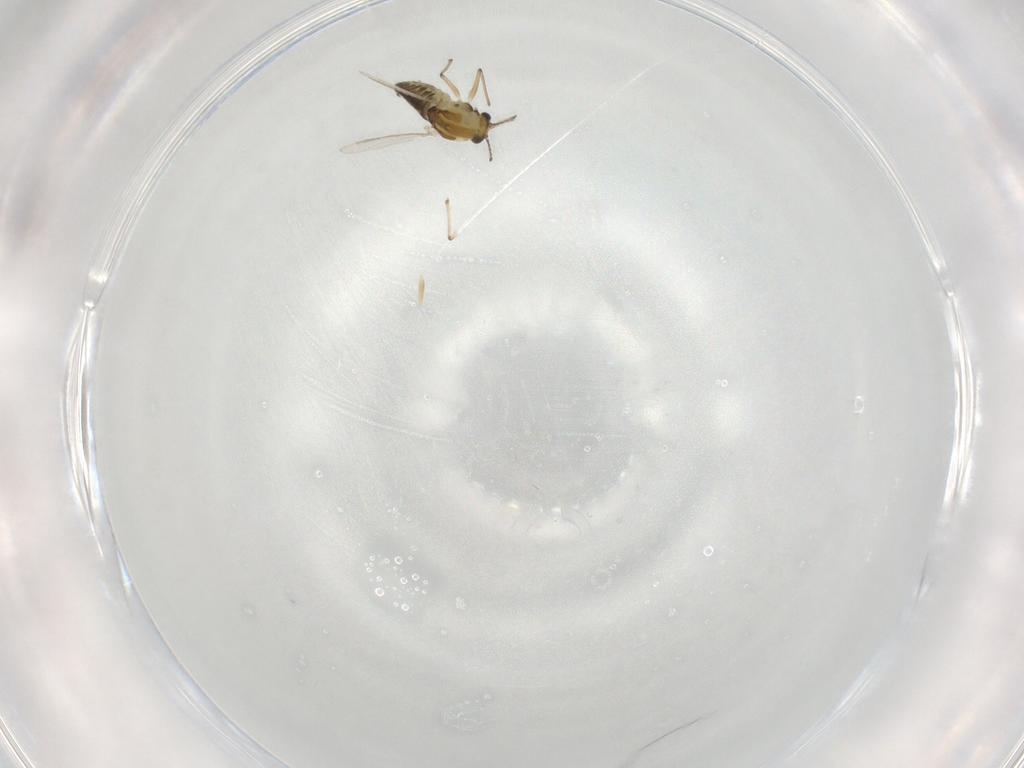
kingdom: Animalia
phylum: Arthropoda
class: Insecta
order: Diptera
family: Chironomidae
